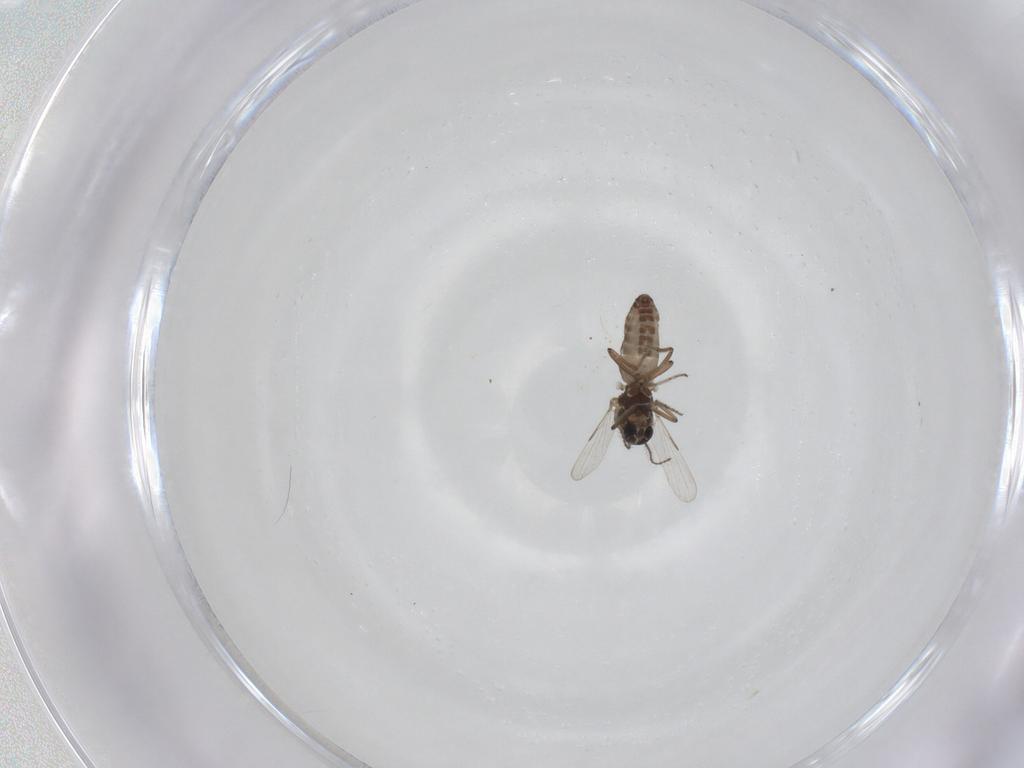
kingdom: Animalia
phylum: Arthropoda
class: Insecta
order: Diptera
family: Ceratopogonidae
